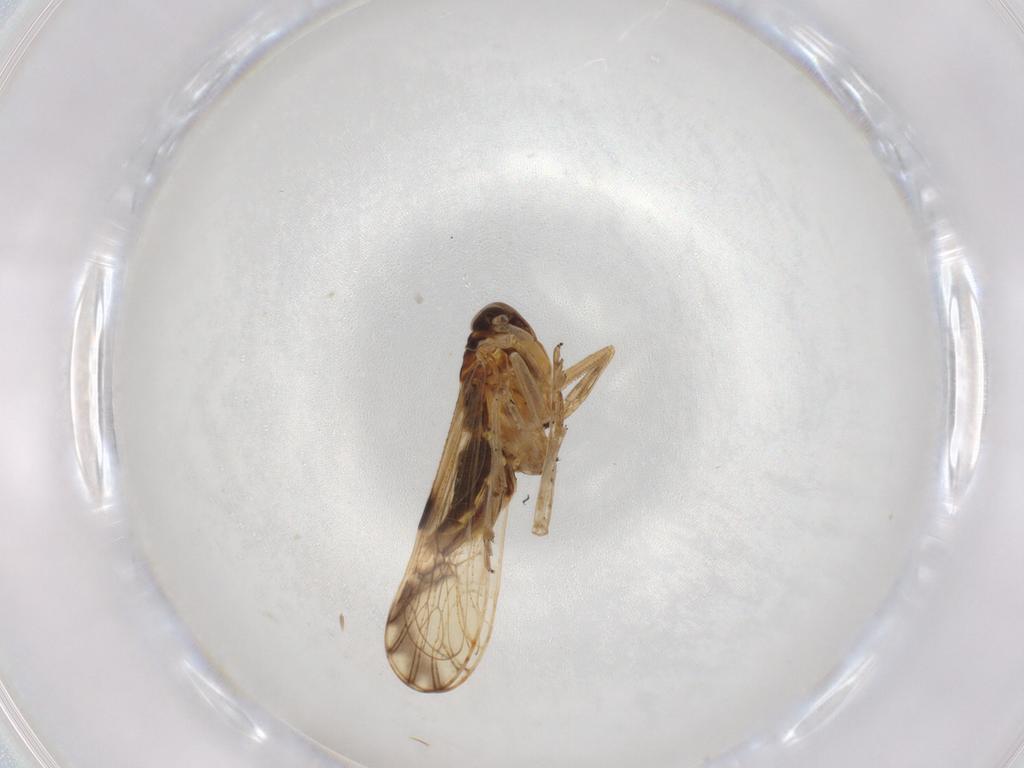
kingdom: Animalia
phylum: Arthropoda
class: Insecta
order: Hemiptera
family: Delphacidae
